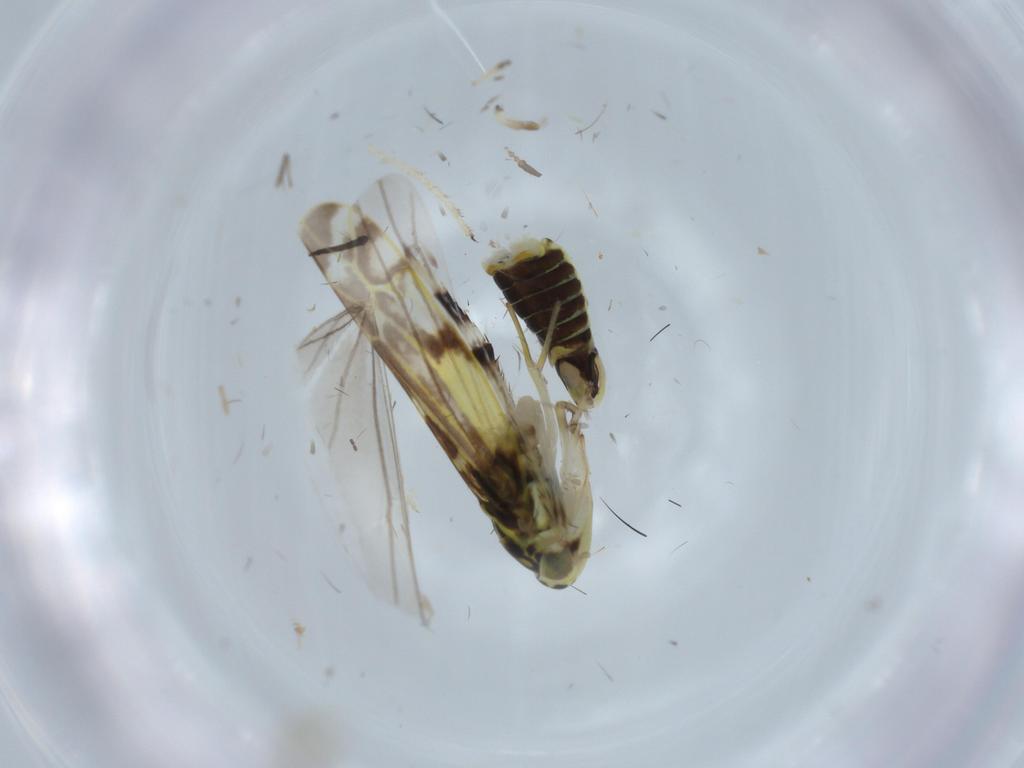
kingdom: Animalia
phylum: Arthropoda
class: Insecta
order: Hemiptera
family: Cicadellidae
